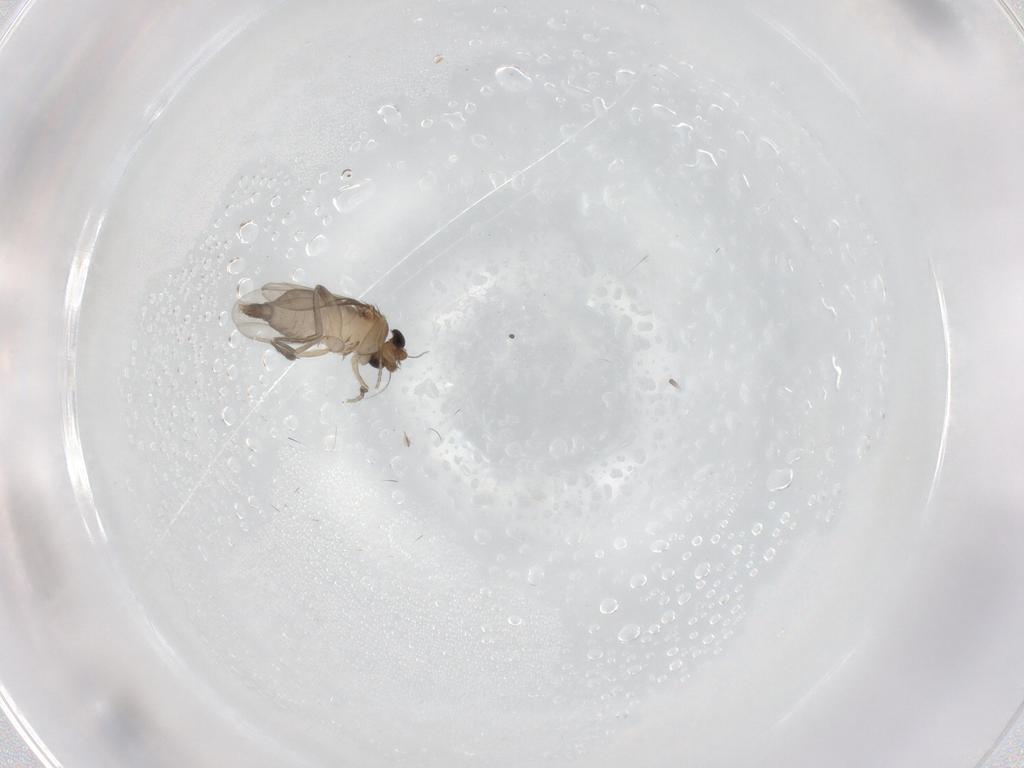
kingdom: Animalia
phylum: Arthropoda
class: Insecta
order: Diptera
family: Phoridae
